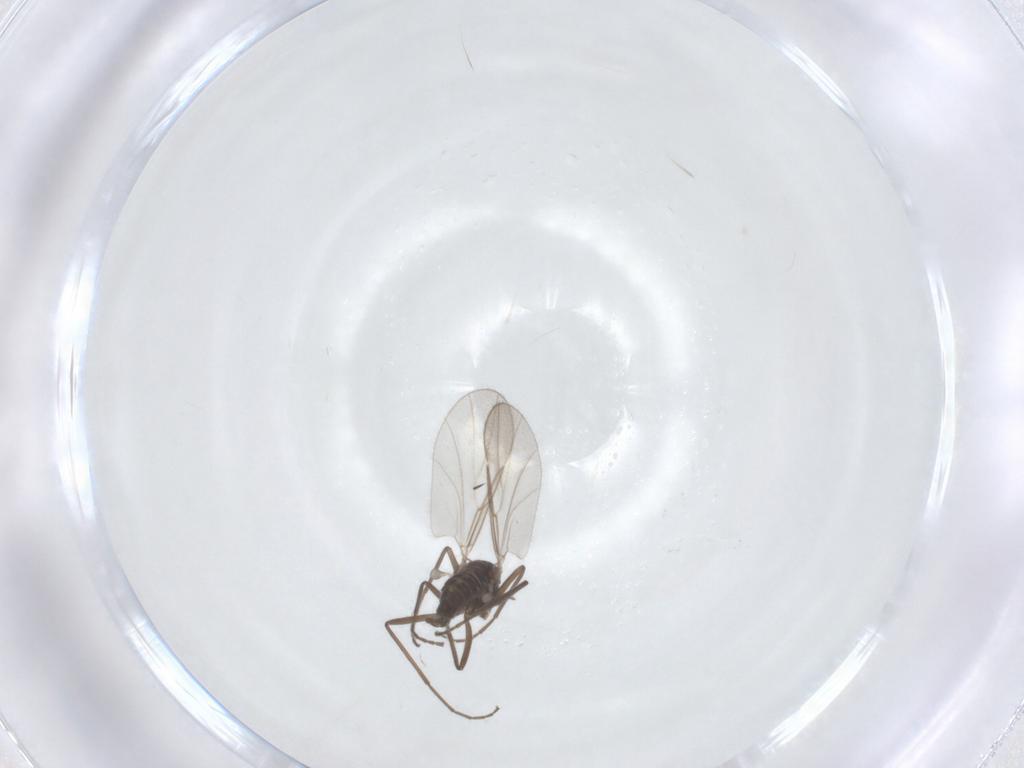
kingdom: Animalia
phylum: Arthropoda
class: Insecta
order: Diptera
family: Cecidomyiidae
